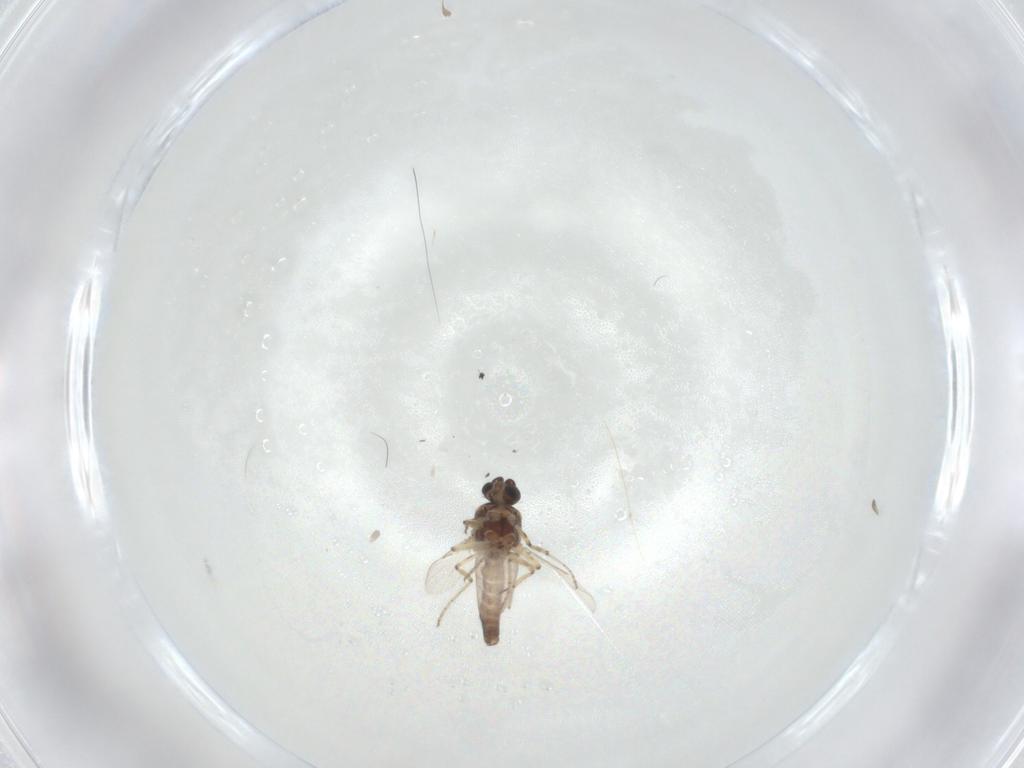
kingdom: Animalia
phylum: Arthropoda
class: Insecta
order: Diptera
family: Ceratopogonidae
